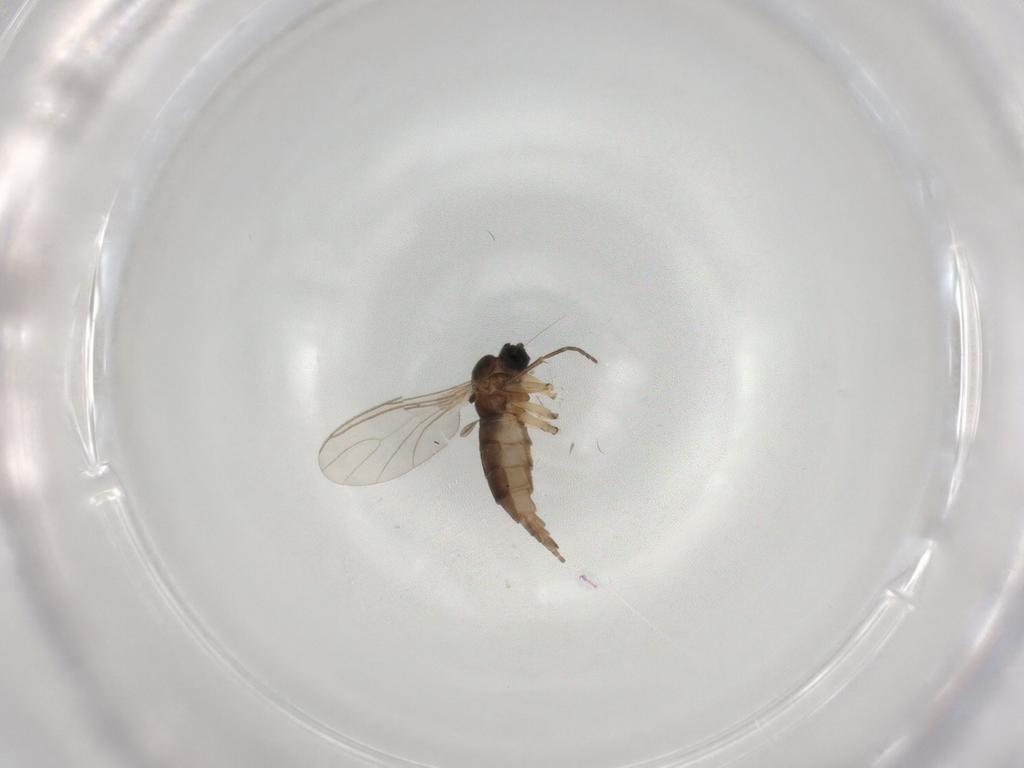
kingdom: Animalia
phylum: Arthropoda
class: Insecta
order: Diptera
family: Sciaridae
